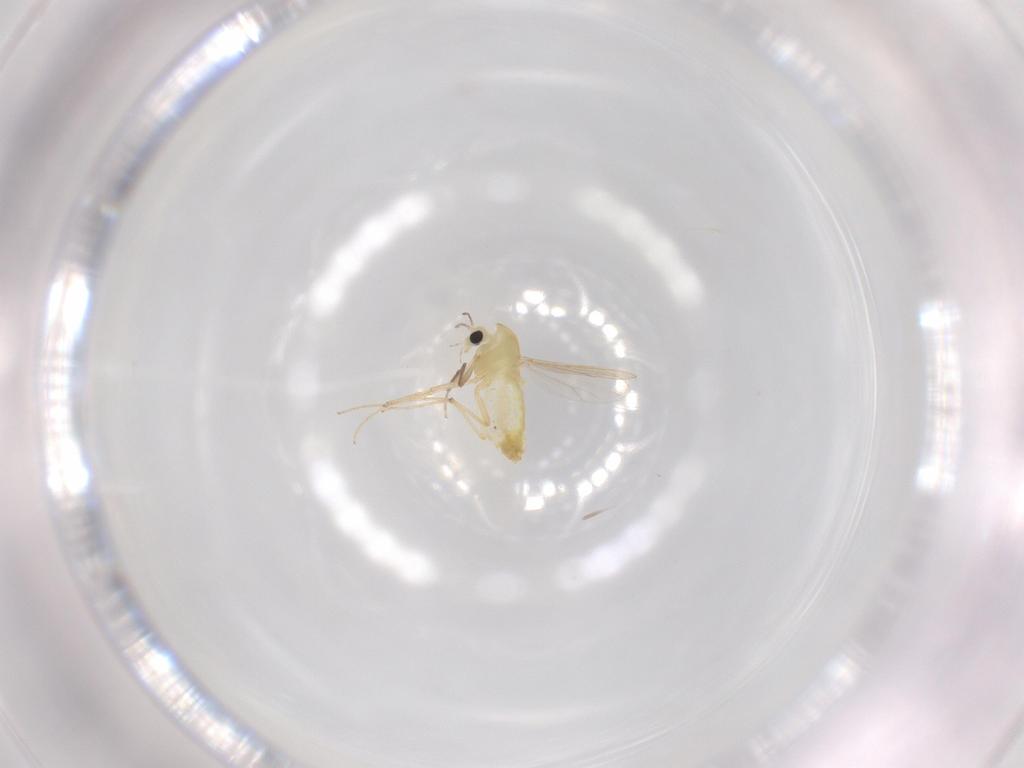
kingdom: Animalia
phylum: Arthropoda
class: Insecta
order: Diptera
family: Chironomidae
